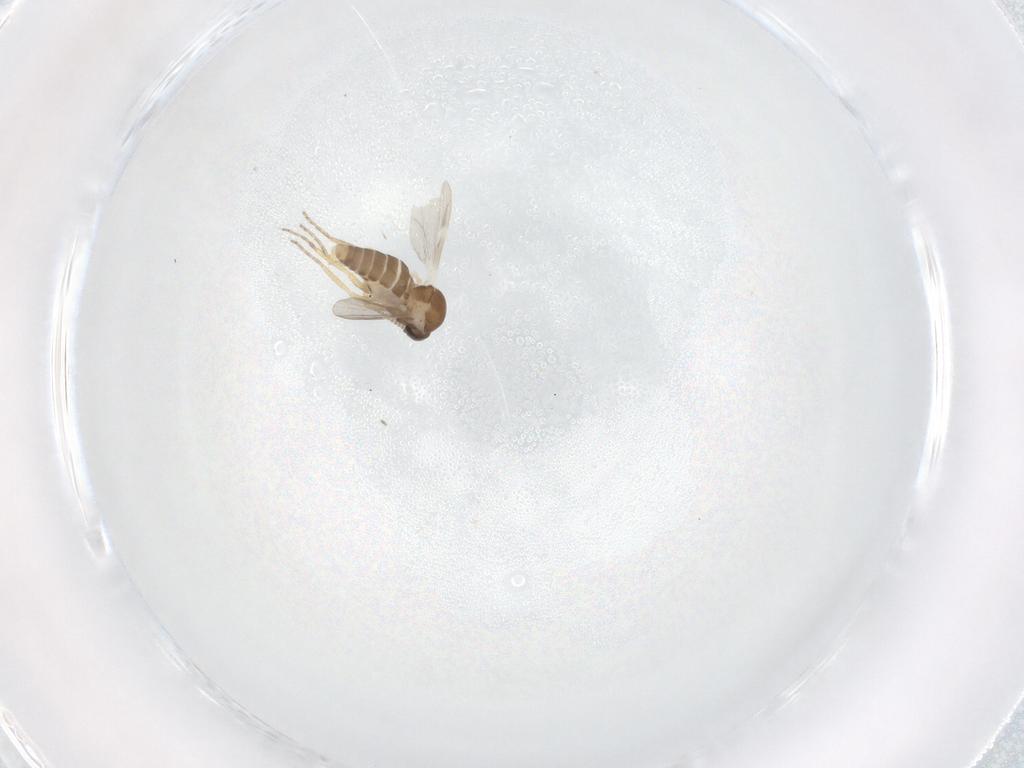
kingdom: Animalia
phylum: Arthropoda
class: Insecta
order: Diptera
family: Ceratopogonidae
